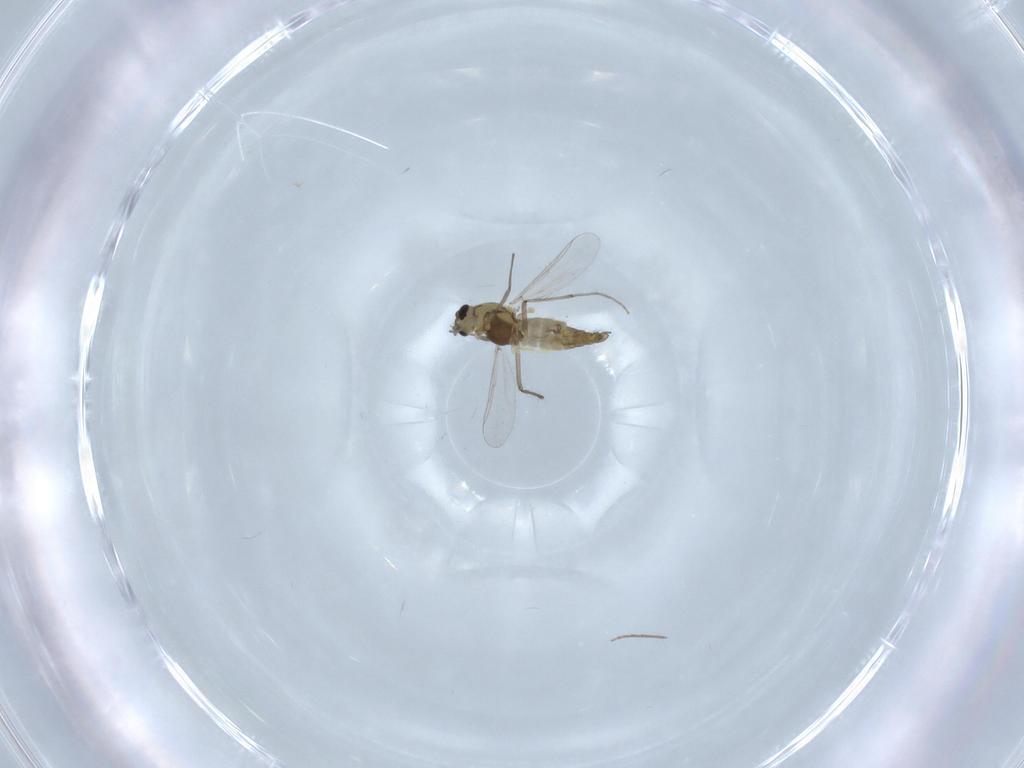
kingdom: Animalia
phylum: Arthropoda
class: Insecta
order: Diptera
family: Chironomidae
